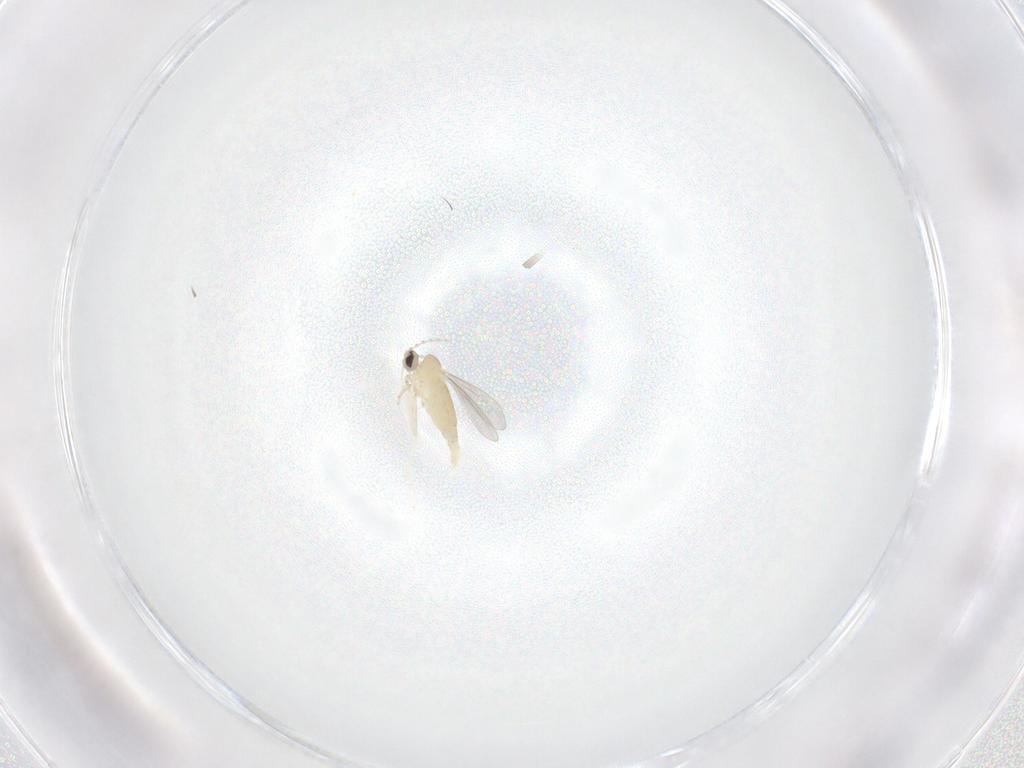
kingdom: Animalia
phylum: Arthropoda
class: Insecta
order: Diptera
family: Cecidomyiidae
